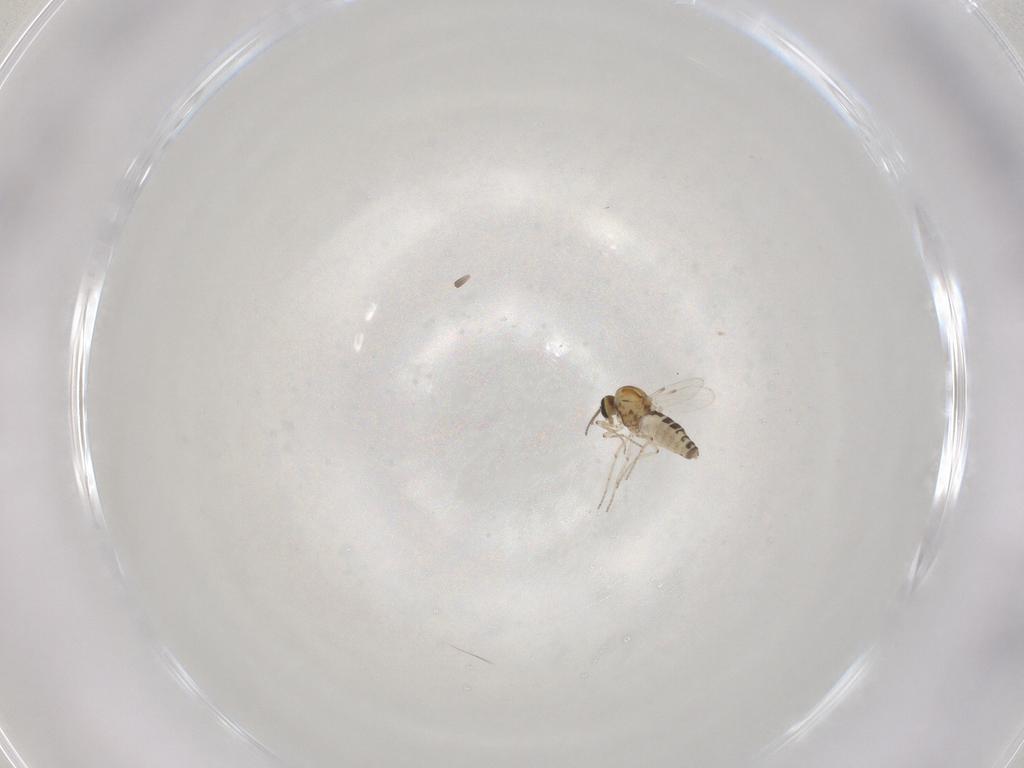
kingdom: Animalia
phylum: Arthropoda
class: Insecta
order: Diptera
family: Ceratopogonidae
